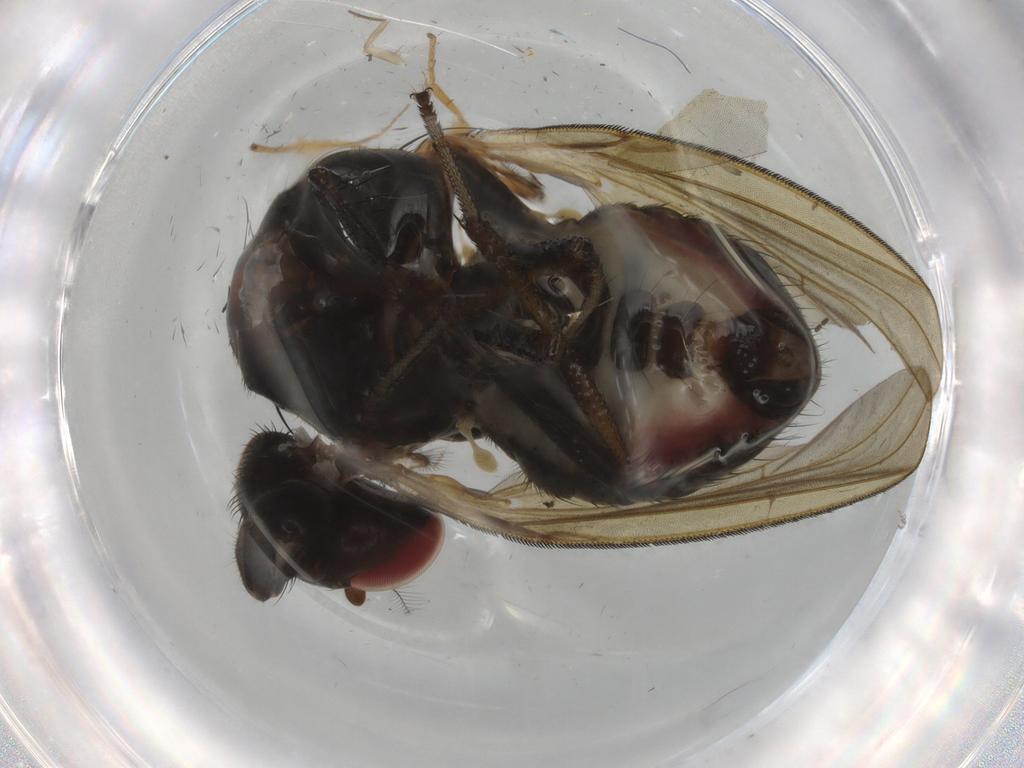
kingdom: Animalia
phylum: Arthropoda
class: Insecta
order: Diptera
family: Lauxaniidae
